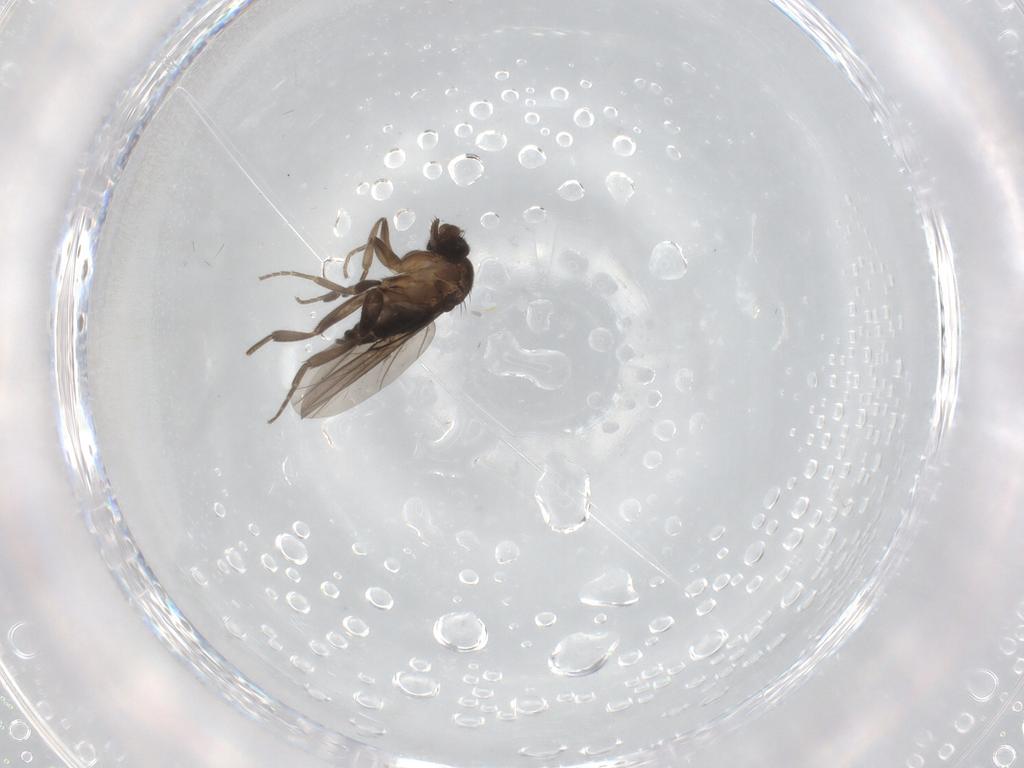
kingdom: Animalia
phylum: Arthropoda
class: Insecta
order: Diptera
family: Phoridae
